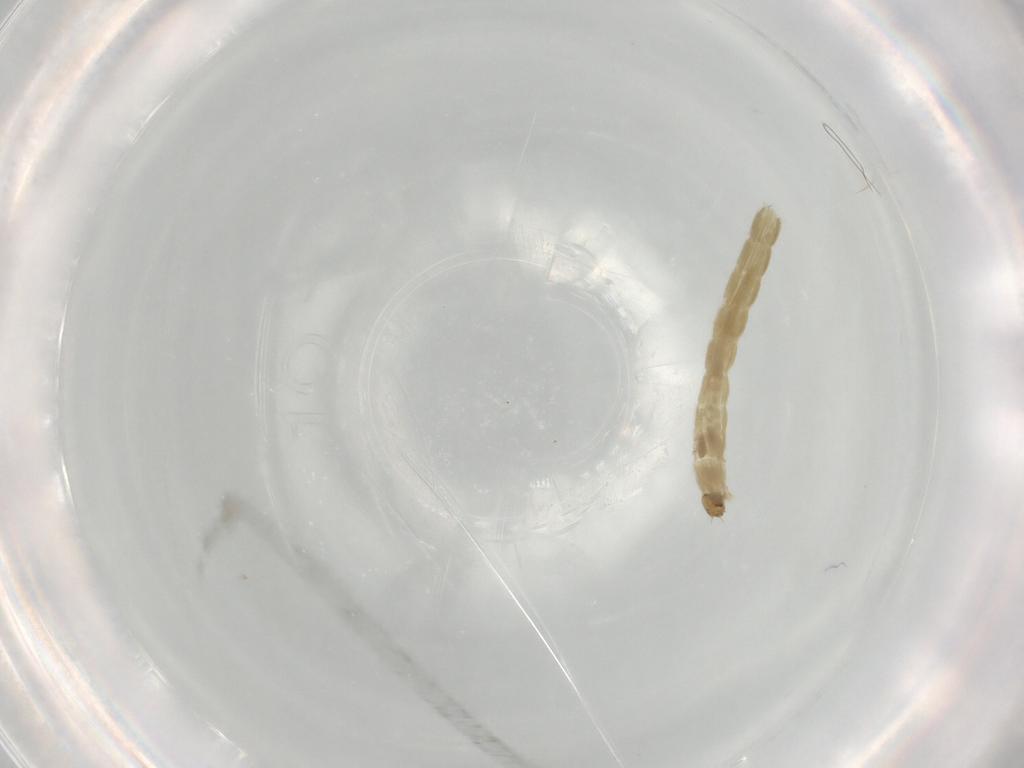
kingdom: Animalia
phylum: Arthropoda
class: Insecta
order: Diptera
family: Chironomidae
